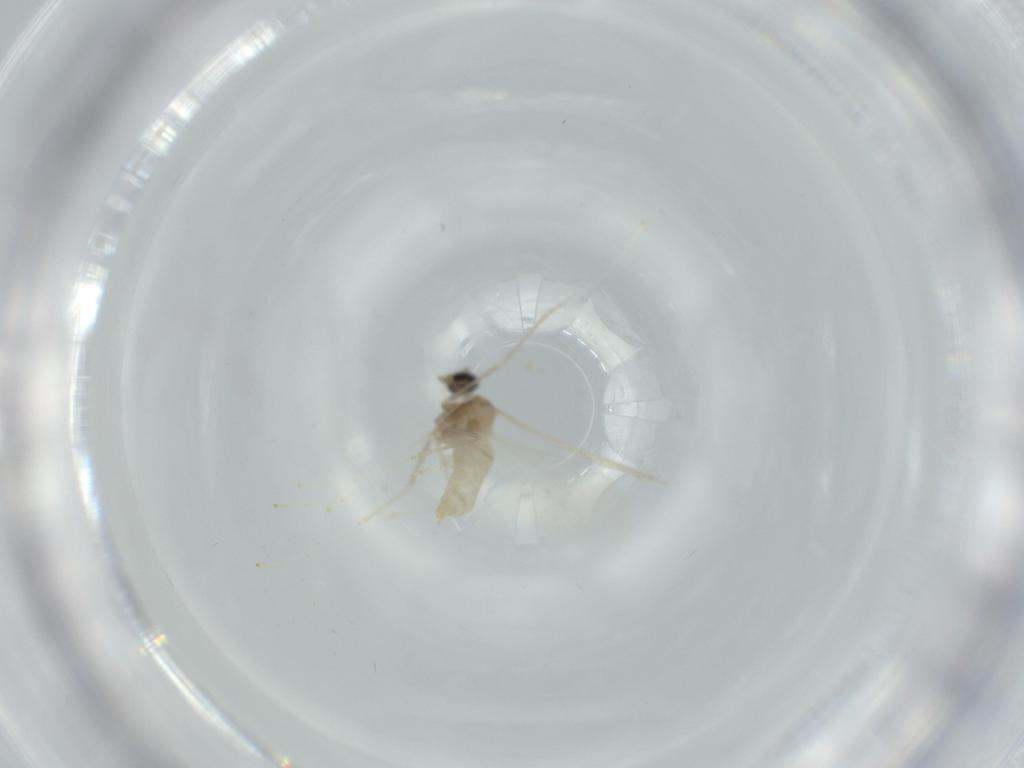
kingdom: Animalia
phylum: Arthropoda
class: Insecta
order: Diptera
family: Cecidomyiidae
